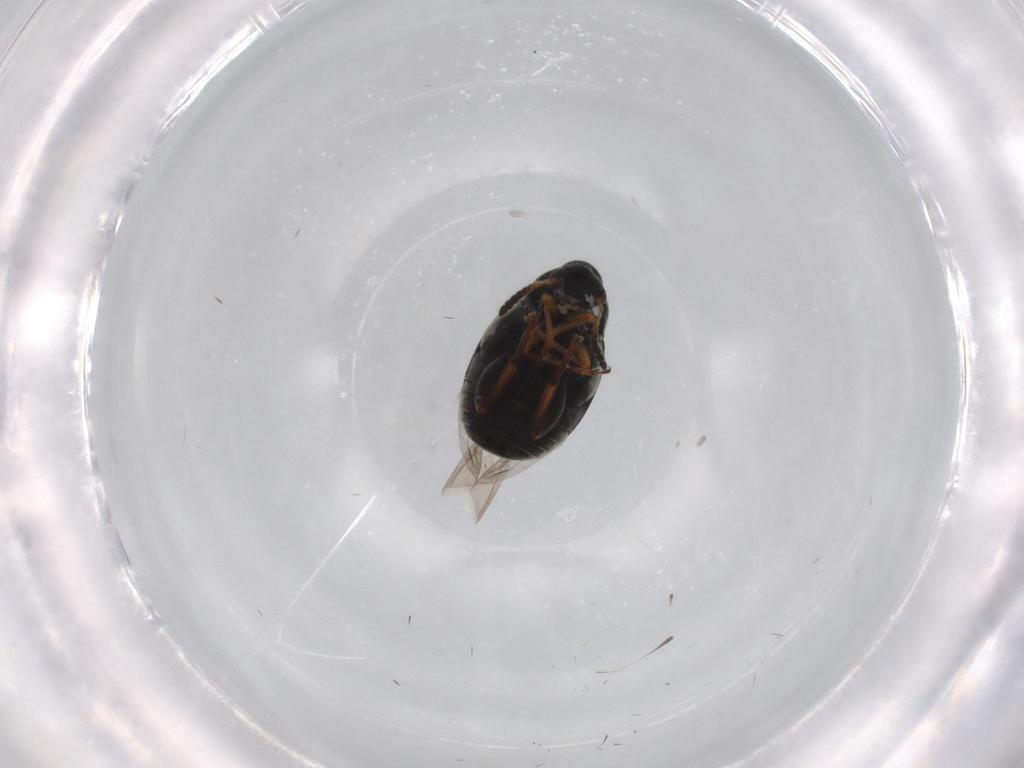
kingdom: Animalia
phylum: Arthropoda
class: Insecta
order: Coleoptera
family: Chrysomelidae
